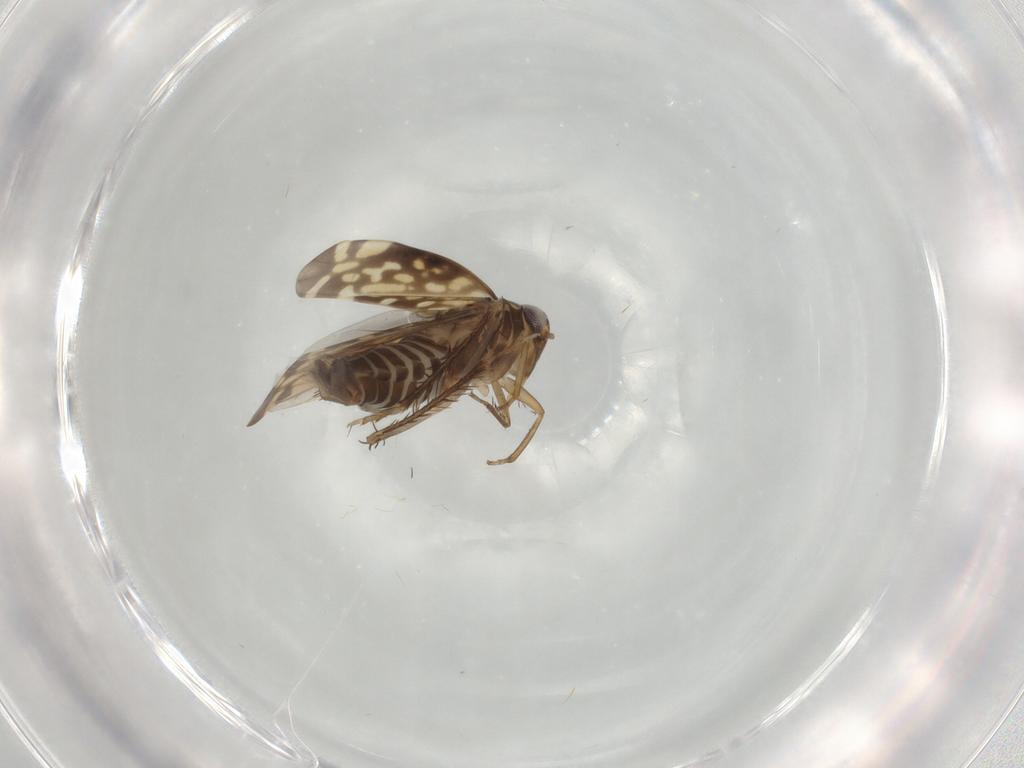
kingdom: Animalia
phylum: Arthropoda
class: Insecta
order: Hemiptera
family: Cicadellidae
